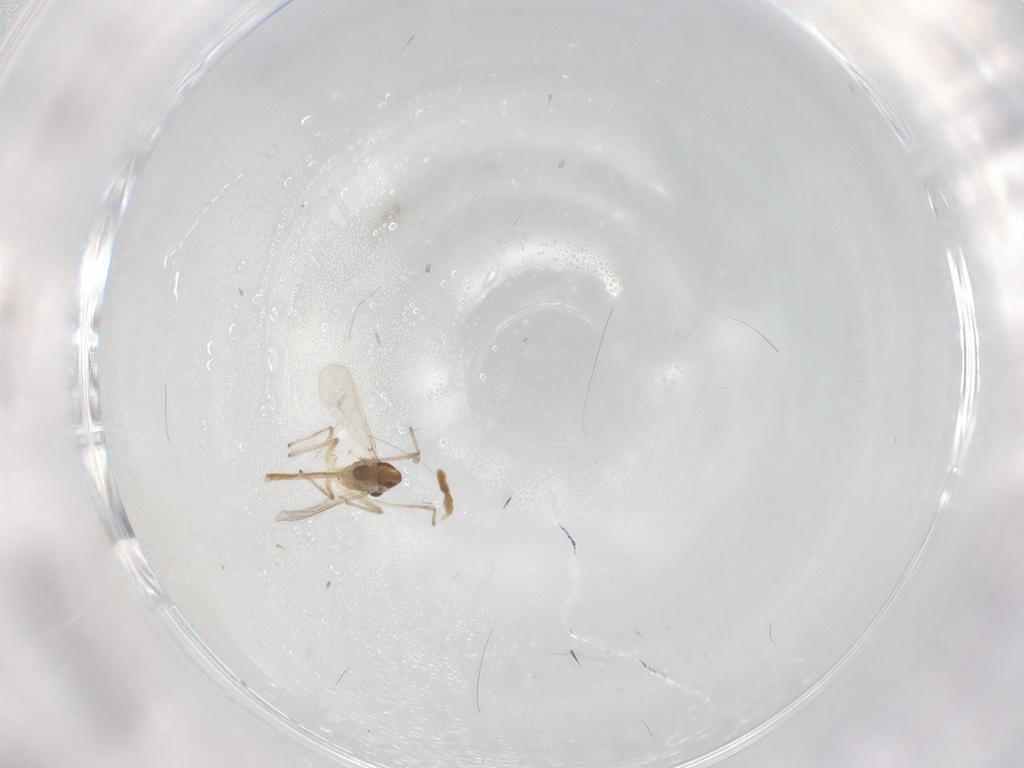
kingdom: Animalia
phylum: Arthropoda
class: Insecta
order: Diptera
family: Chironomidae
